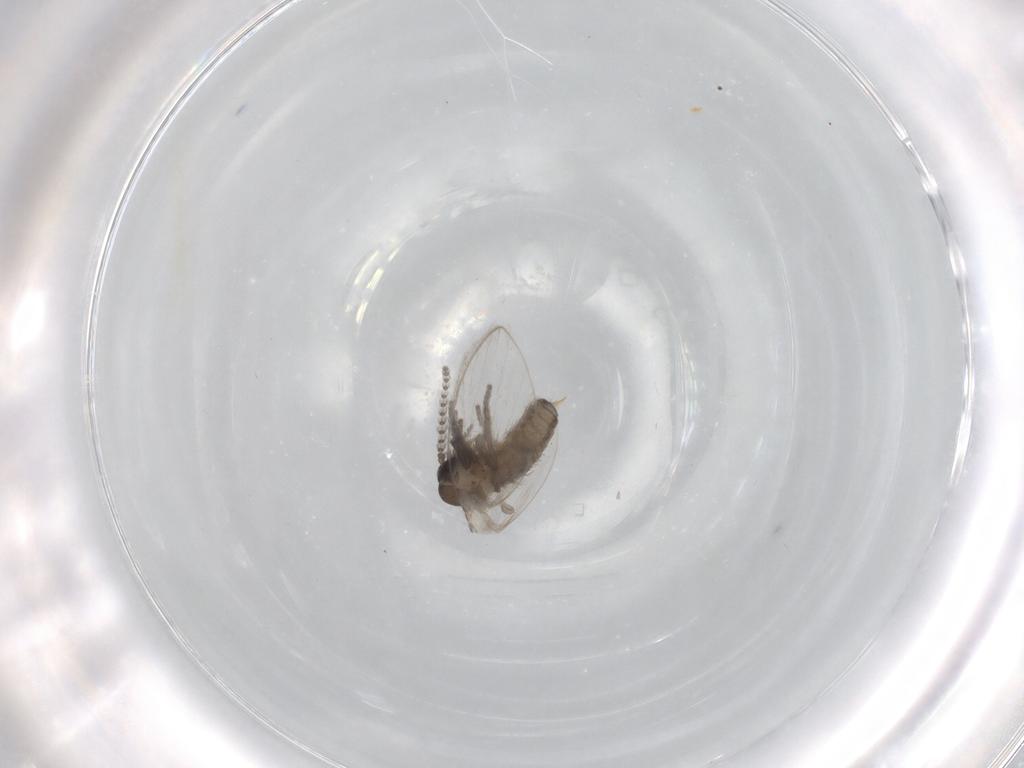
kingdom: Animalia
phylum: Arthropoda
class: Insecta
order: Diptera
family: Psychodidae
